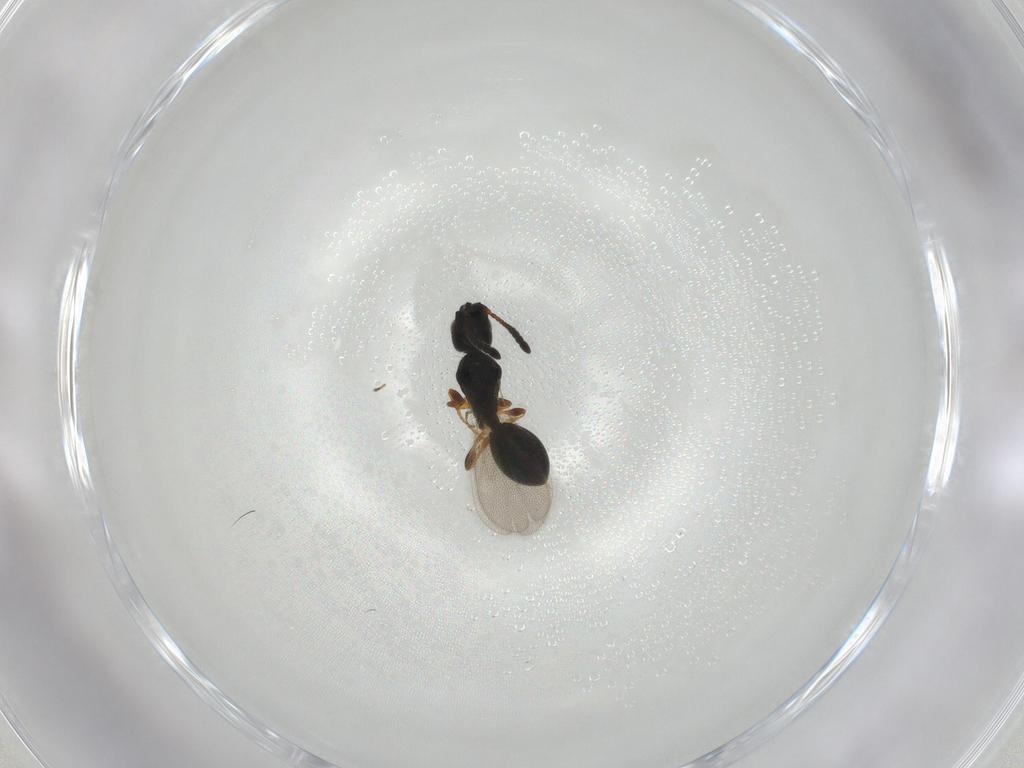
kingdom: Animalia
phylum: Arthropoda
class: Insecta
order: Hymenoptera
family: Diapriidae
